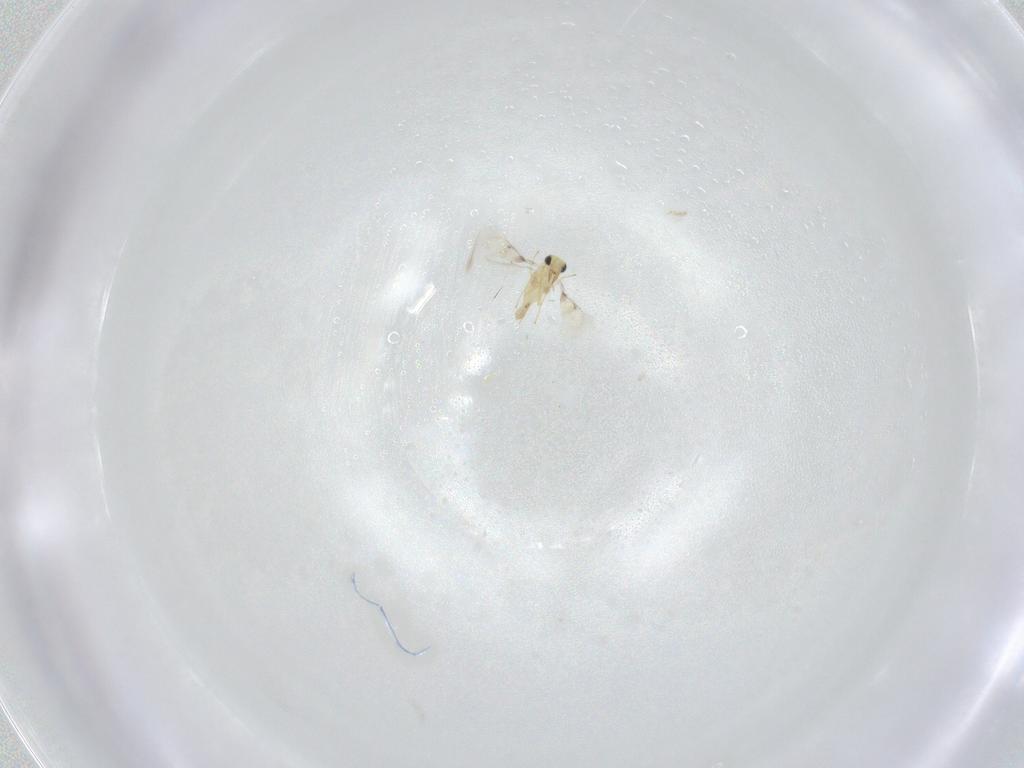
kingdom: Animalia
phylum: Arthropoda
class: Insecta
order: Hymenoptera
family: Trichogrammatidae
